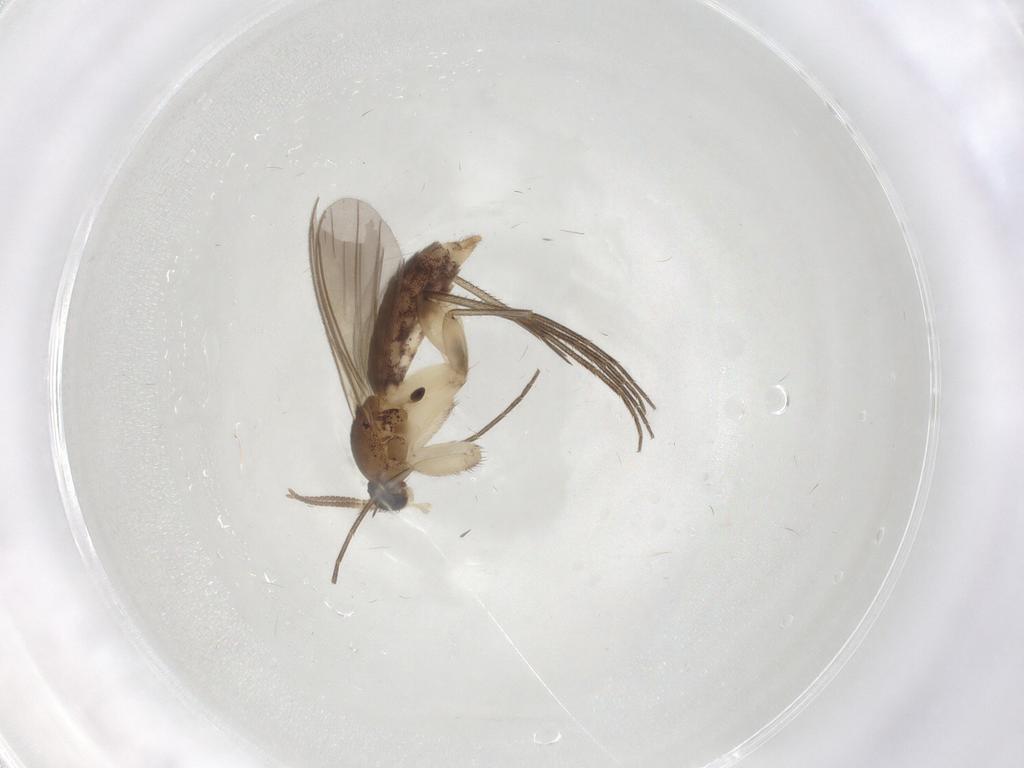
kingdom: Animalia
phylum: Arthropoda
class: Insecta
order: Diptera
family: Mycetophilidae
